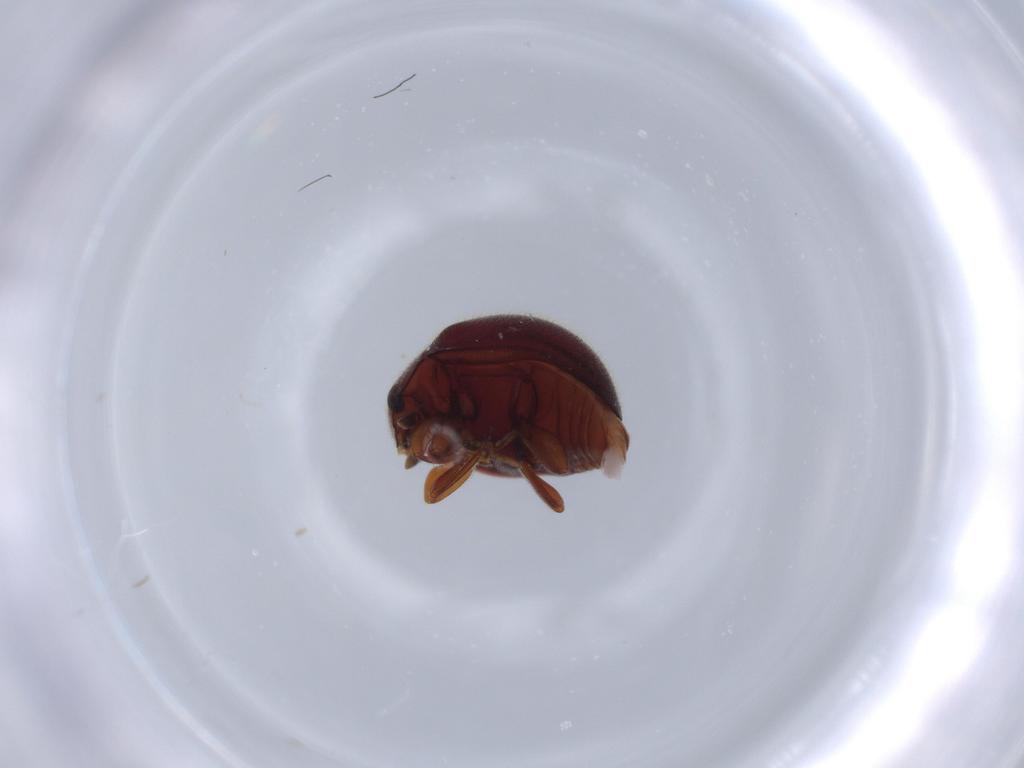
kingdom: Animalia
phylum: Arthropoda
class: Insecta
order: Coleoptera
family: Coccinellidae
